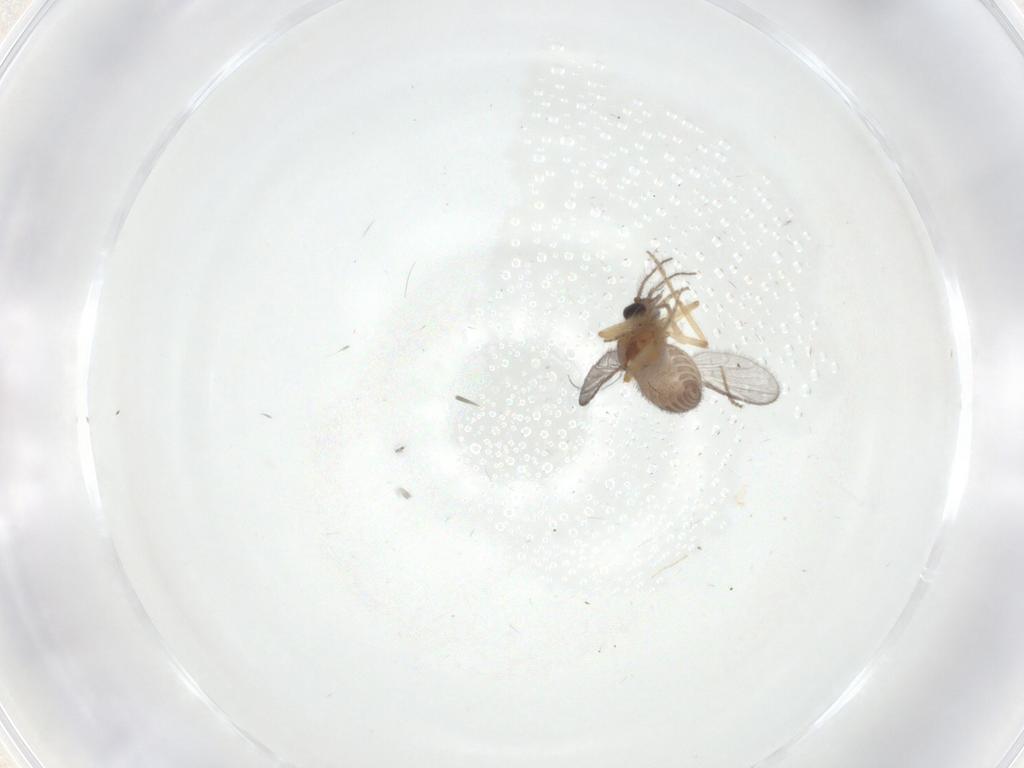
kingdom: Animalia
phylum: Arthropoda
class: Insecta
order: Diptera
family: Ceratopogonidae
